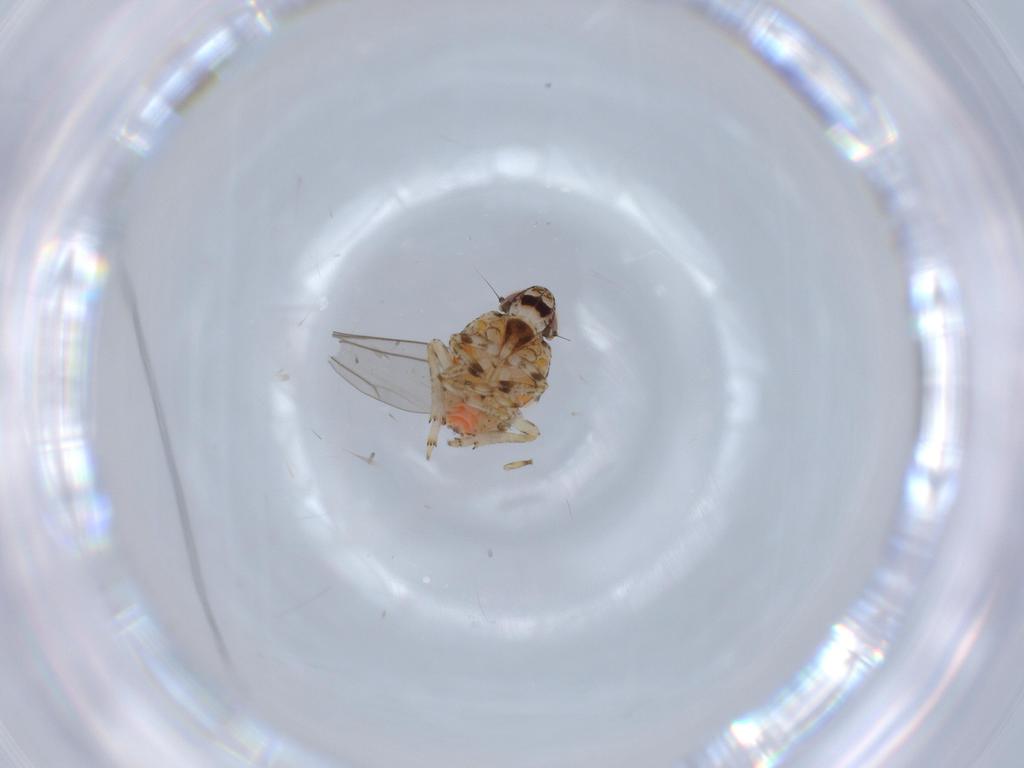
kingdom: Animalia
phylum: Arthropoda
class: Insecta
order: Hemiptera
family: Issidae
